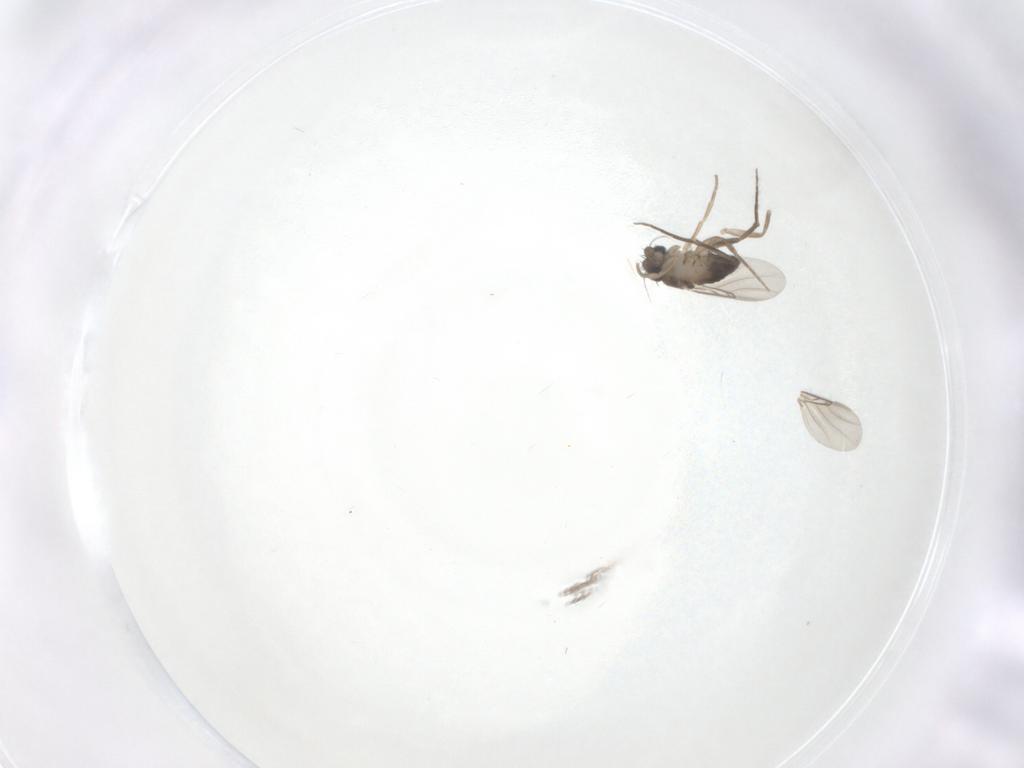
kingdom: Animalia
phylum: Arthropoda
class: Insecta
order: Diptera
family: Phoridae
